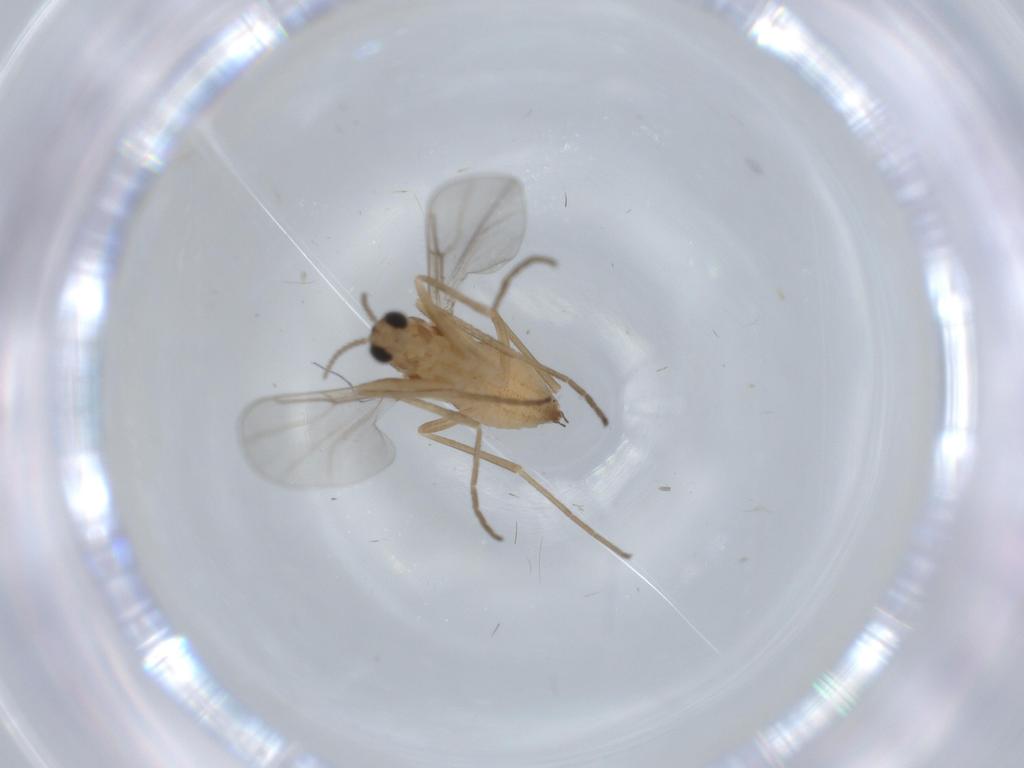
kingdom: Animalia
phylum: Arthropoda
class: Insecta
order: Diptera
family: Cecidomyiidae
